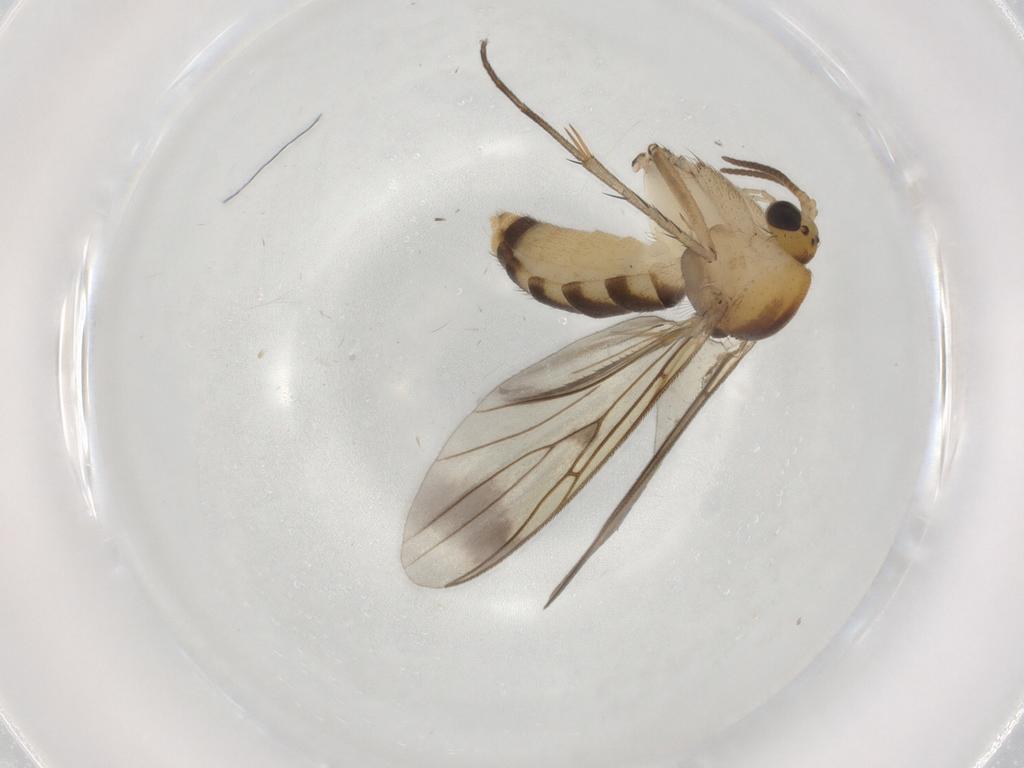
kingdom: Animalia
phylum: Arthropoda
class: Insecta
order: Diptera
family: Mycetophilidae
